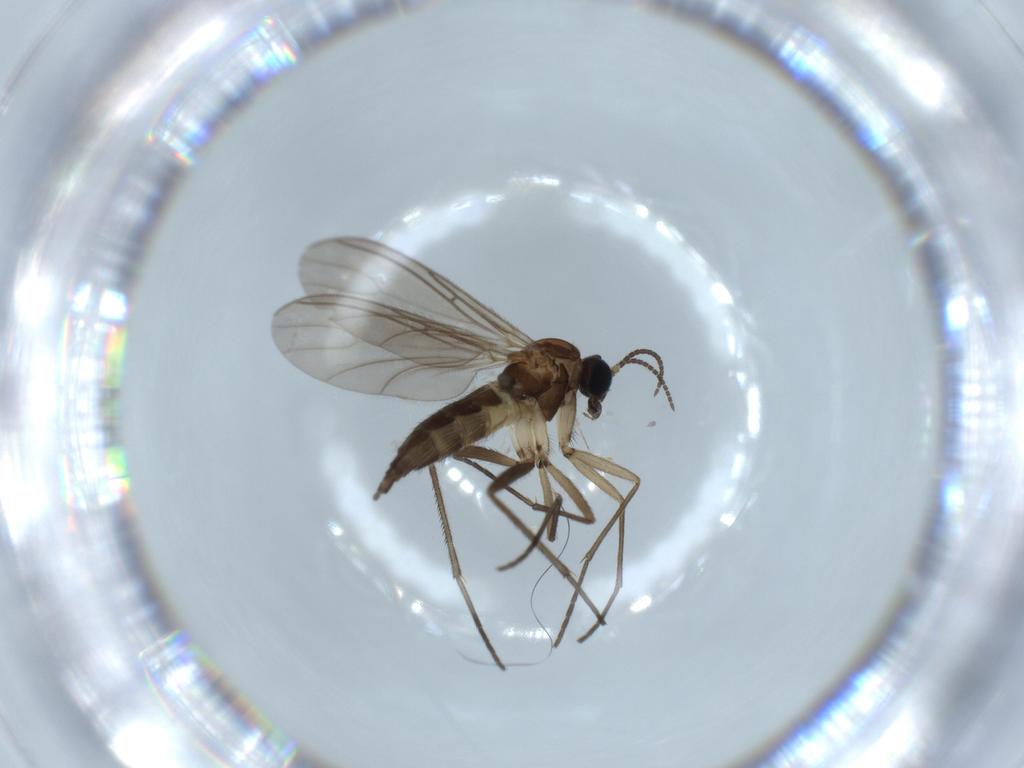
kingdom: Animalia
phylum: Arthropoda
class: Insecta
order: Diptera
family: Sciaridae
